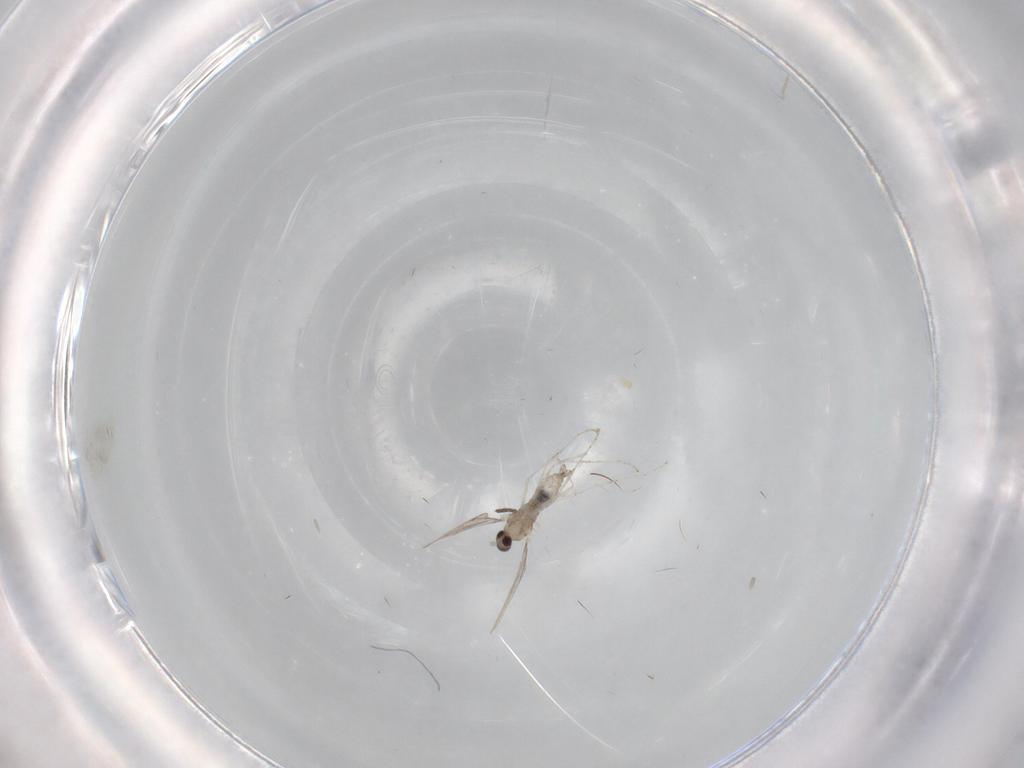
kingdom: Animalia
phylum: Arthropoda
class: Insecta
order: Diptera
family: Cecidomyiidae
